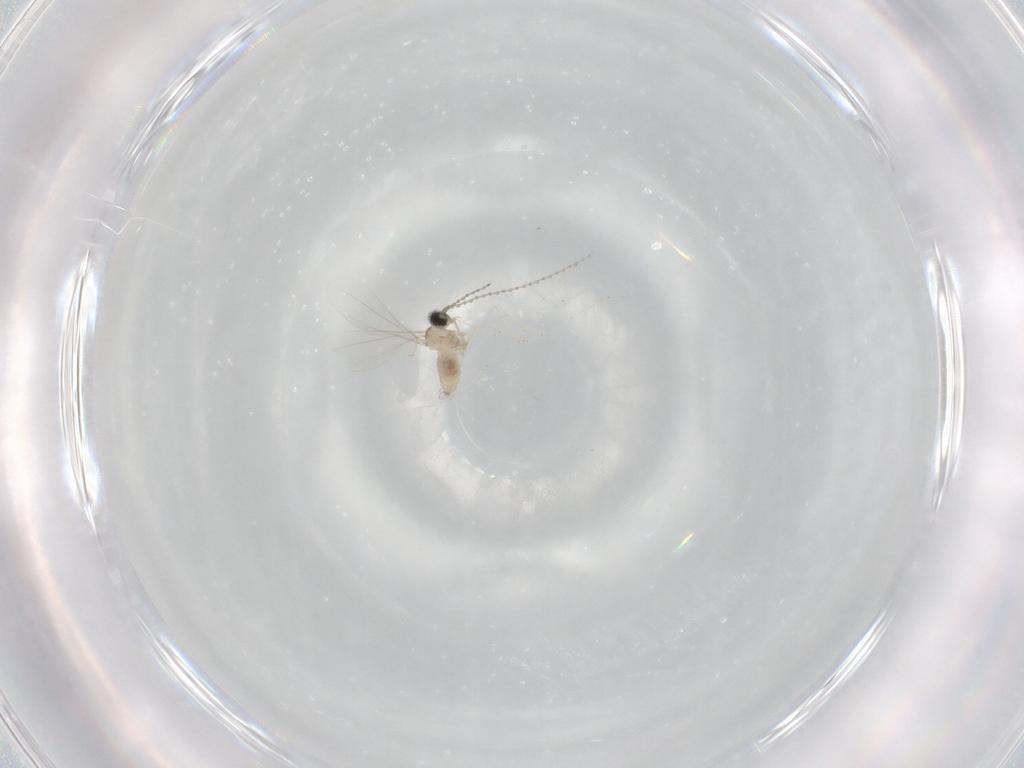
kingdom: Animalia
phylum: Arthropoda
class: Insecta
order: Diptera
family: Cecidomyiidae
